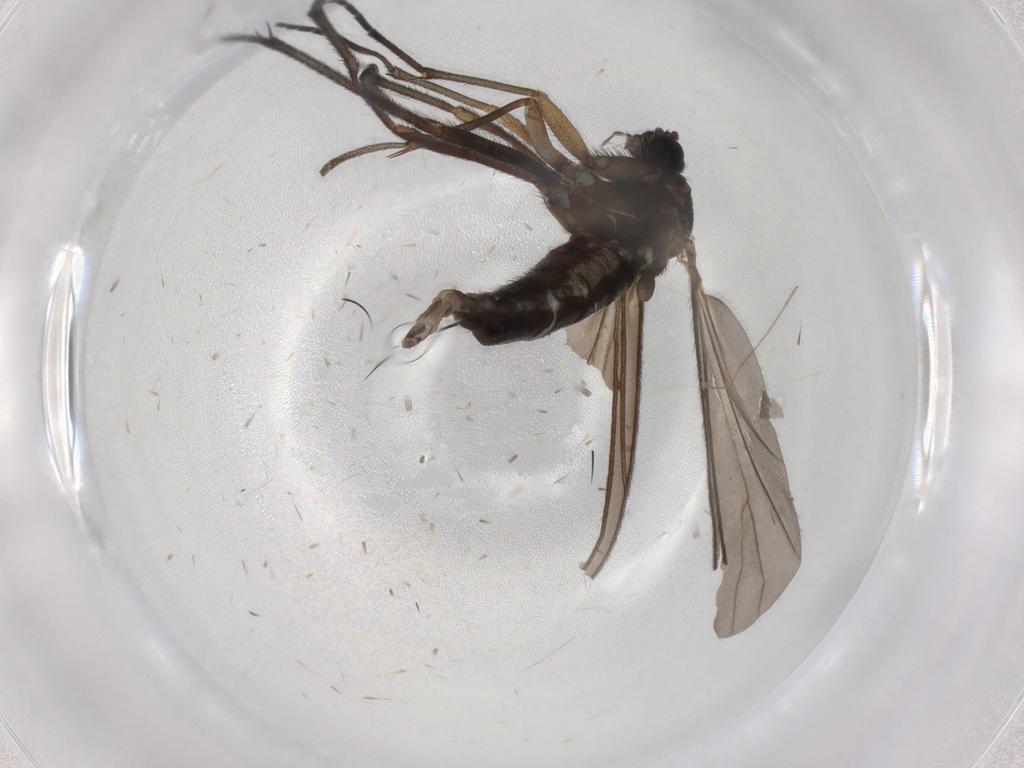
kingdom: Animalia
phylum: Arthropoda
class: Insecta
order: Diptera
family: Sciaridae
